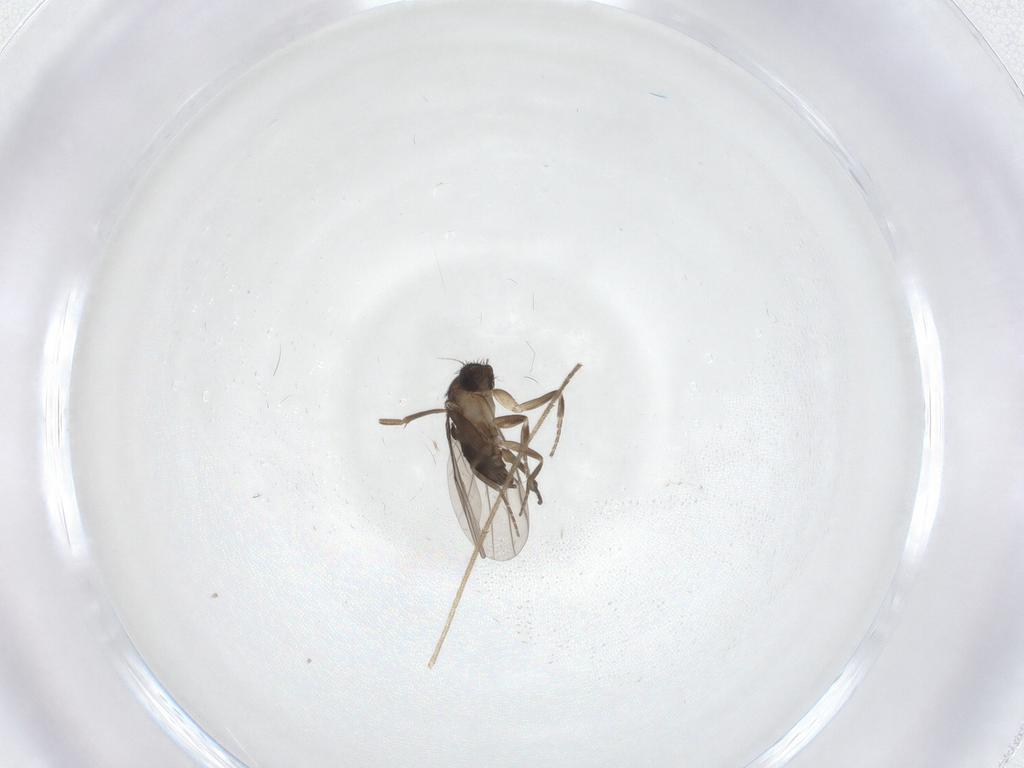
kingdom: Animalia
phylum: Arthropoda
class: Insecta
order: Diptera
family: Mycetophilidae
